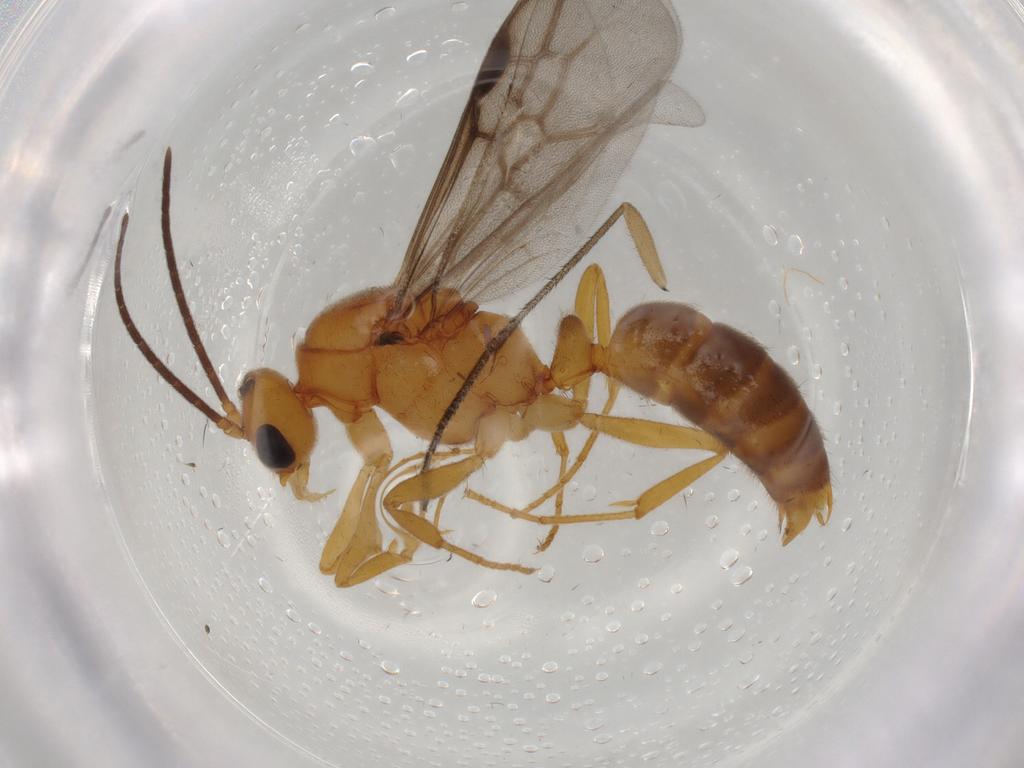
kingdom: Animalia
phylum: Arthropoda
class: Insecta
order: Hymenoptera
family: Formicidae
